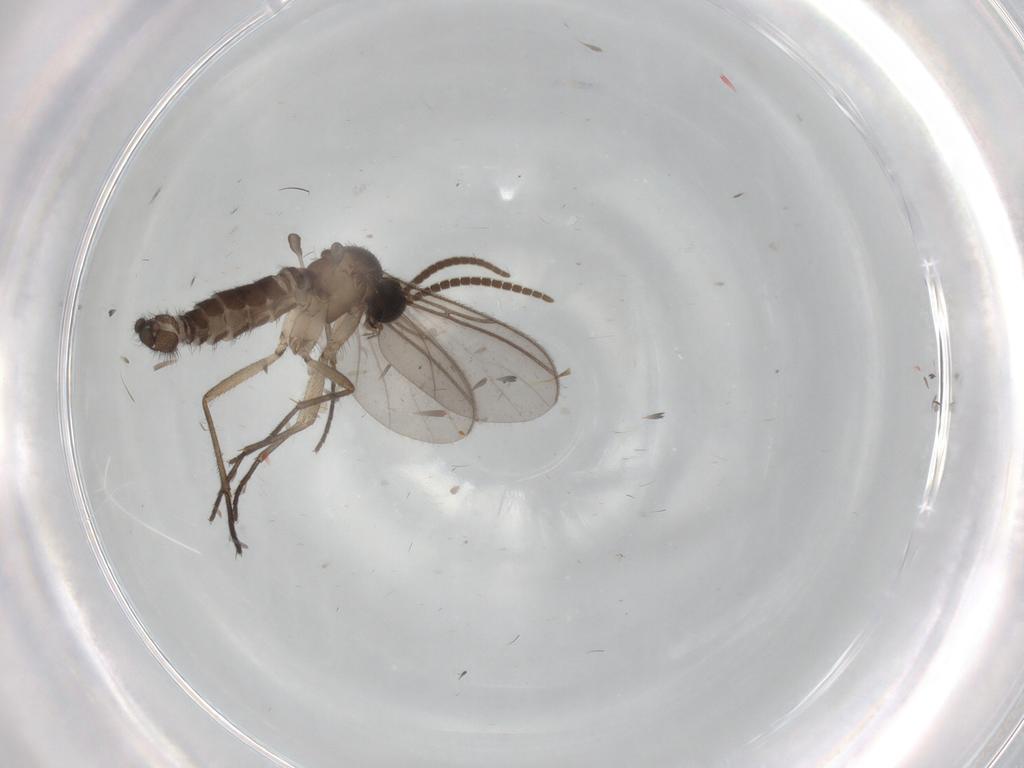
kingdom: Animalia
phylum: Arthropoda
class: Insecta
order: Diptera
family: Sciaridae
